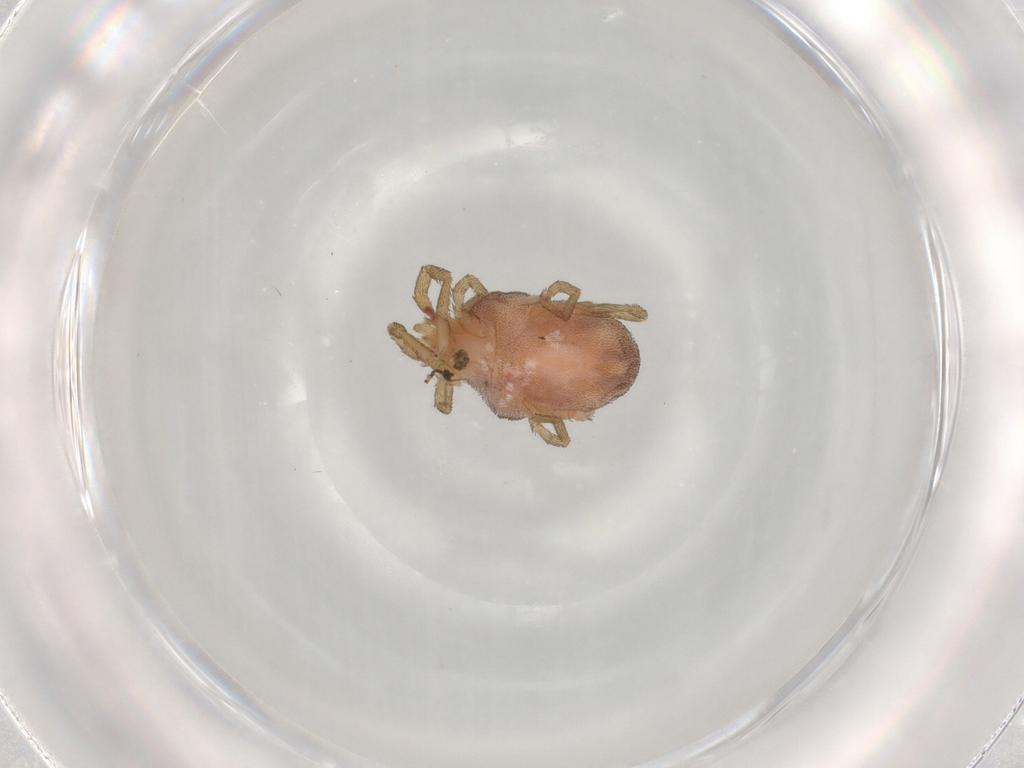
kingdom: Animalia
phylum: Arthropoda
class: Arachnida
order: Trombidiformes
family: Erythraeidae
